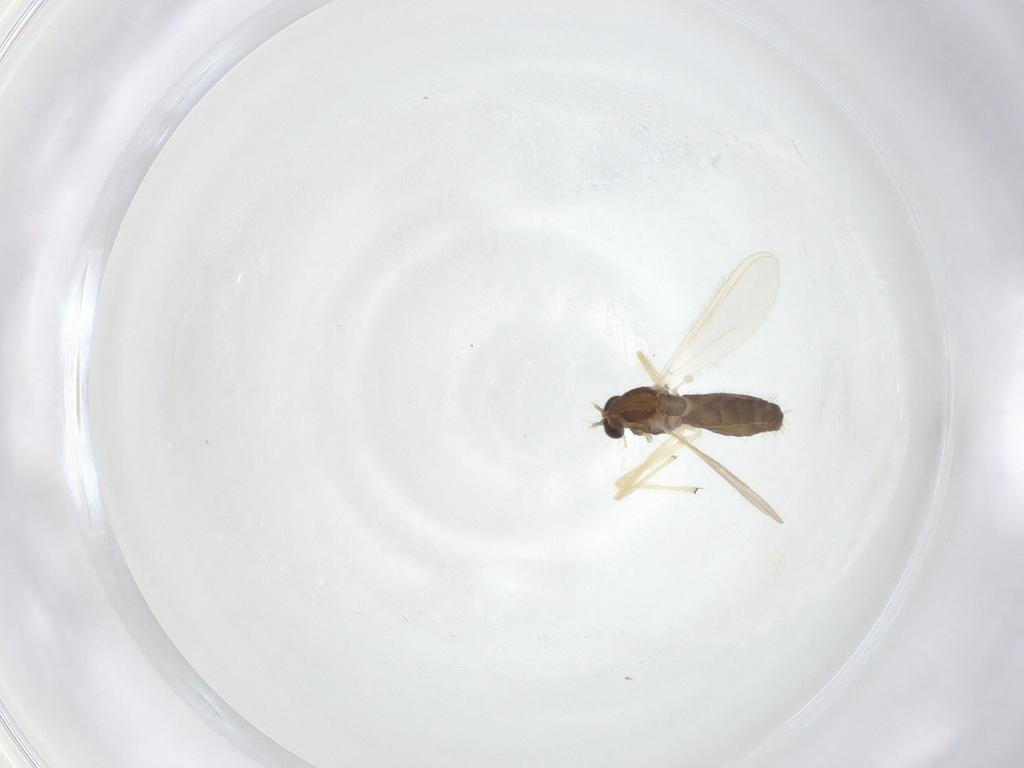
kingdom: Animalia
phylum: Arthropoda
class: Insecta
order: Diptera
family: Chironomidae
